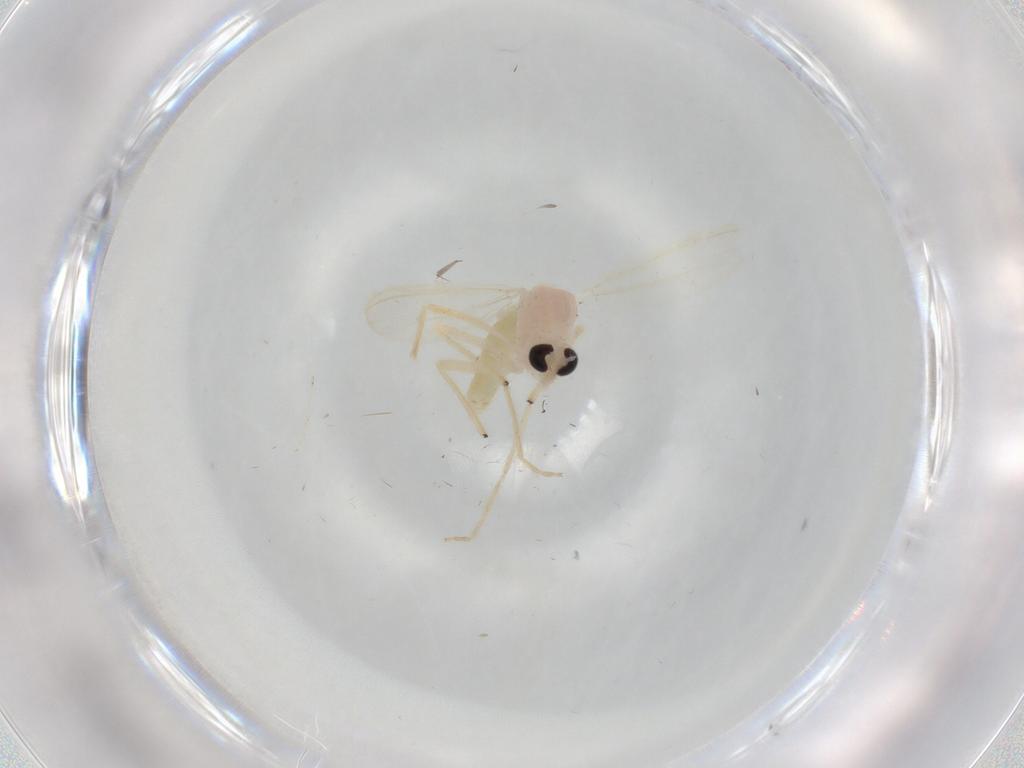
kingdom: Animalia
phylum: Arthropoda
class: Insecta
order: Diptera
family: Chironomidae
